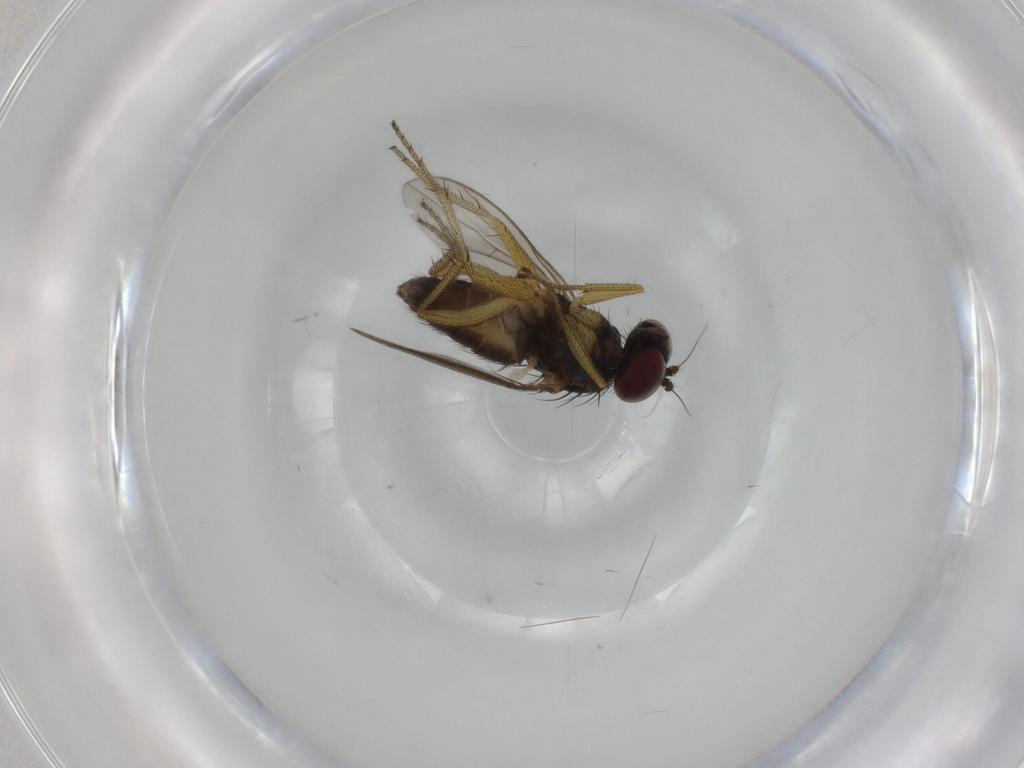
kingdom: Animalia
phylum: Arthropoda
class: Insecta
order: Diptera
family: Dolichopodidae
